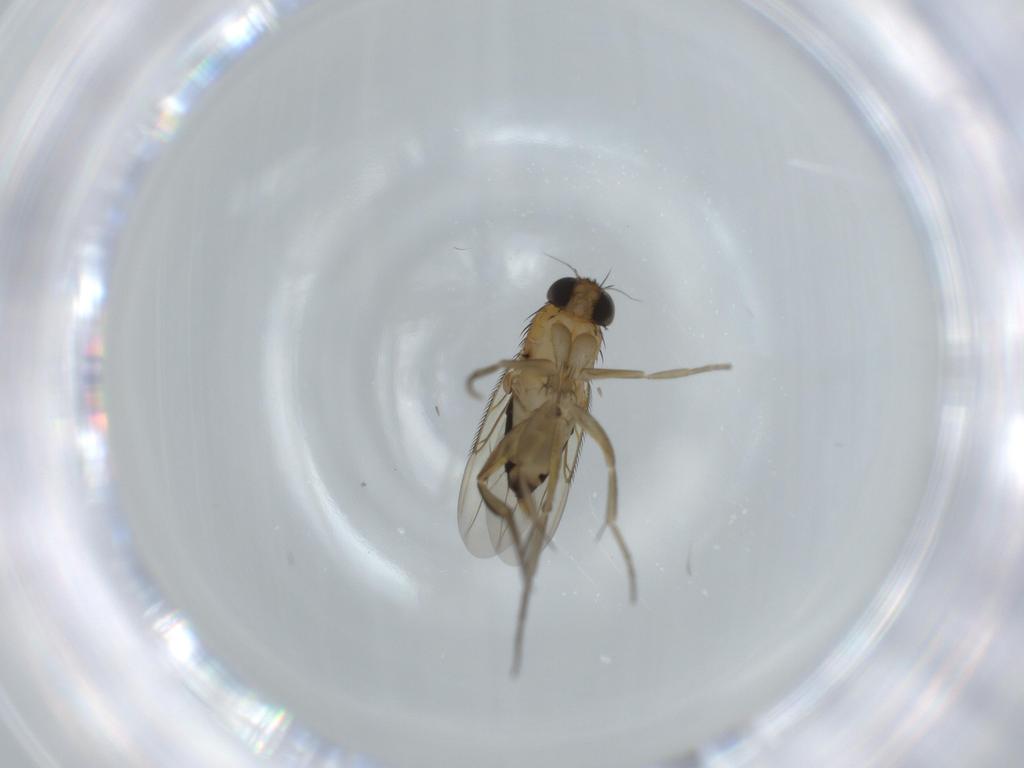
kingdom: Animalia
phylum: Arthropoda
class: Insecta
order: Diptera
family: Phoridae
